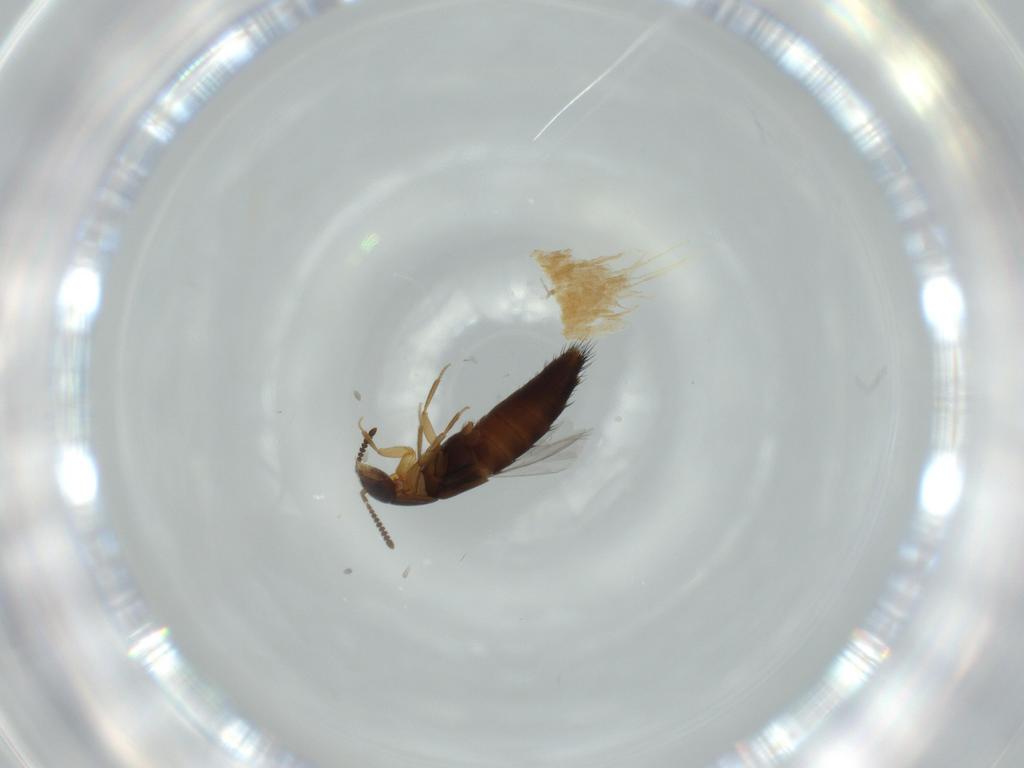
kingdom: Animalia
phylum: Arthropoda
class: Insecta
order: Coleoptera
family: Staphylinidae
